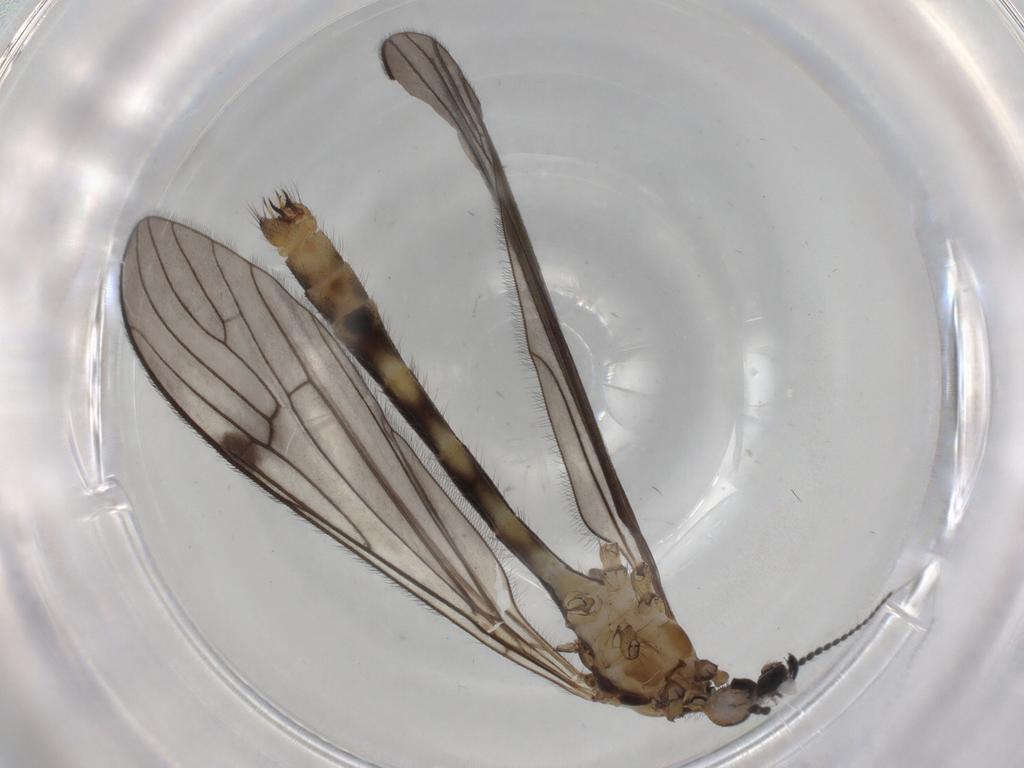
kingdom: Animalia
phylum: Arthropoda
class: Insecta
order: Diptera
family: Limoniidae
